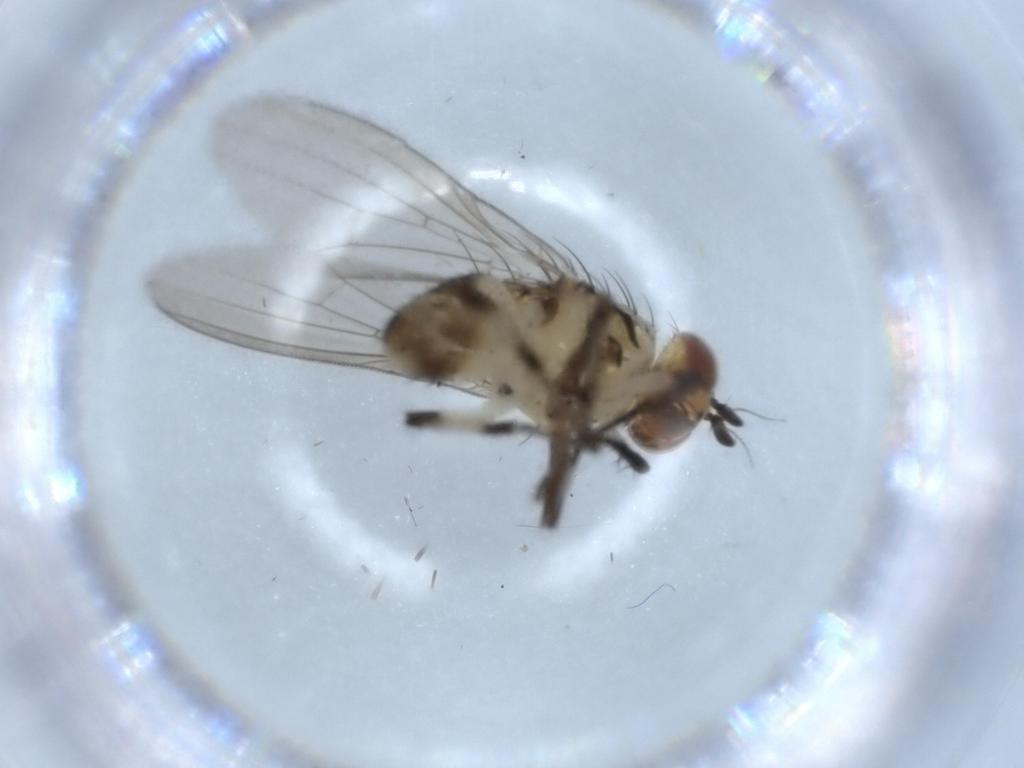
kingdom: Animalia
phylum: Arthropoda
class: Insecta
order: Diptera
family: Lauxaniidae
